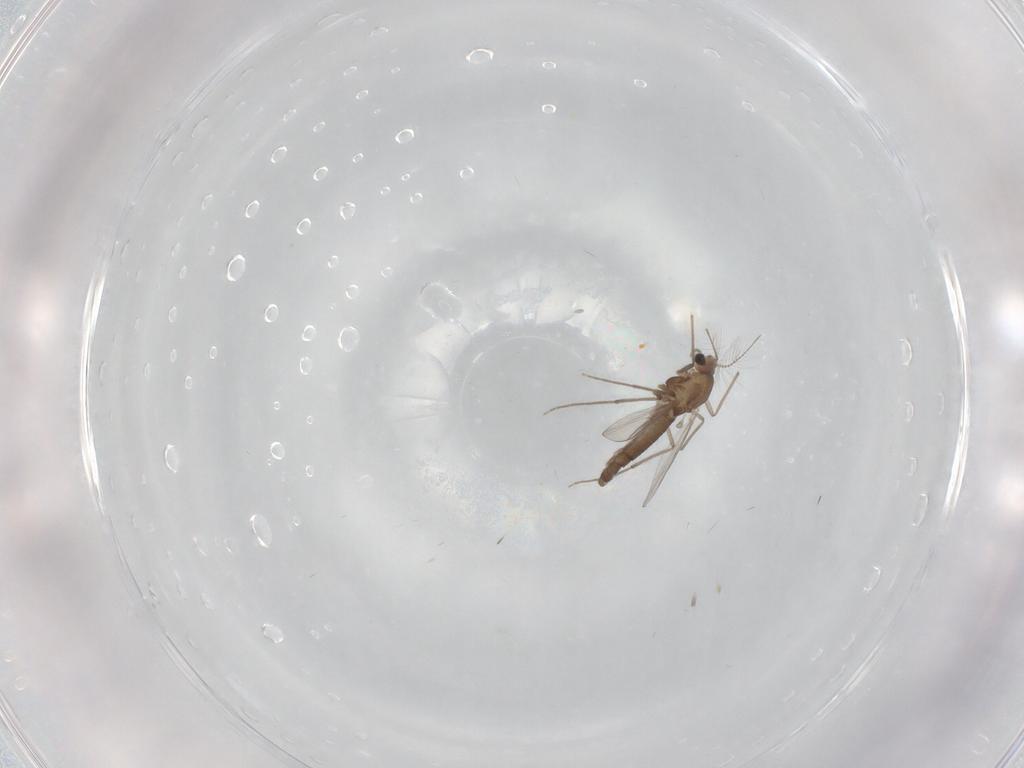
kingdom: Animalia
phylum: Arthropoda
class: Insecta
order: Diptera
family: Chironomidae
